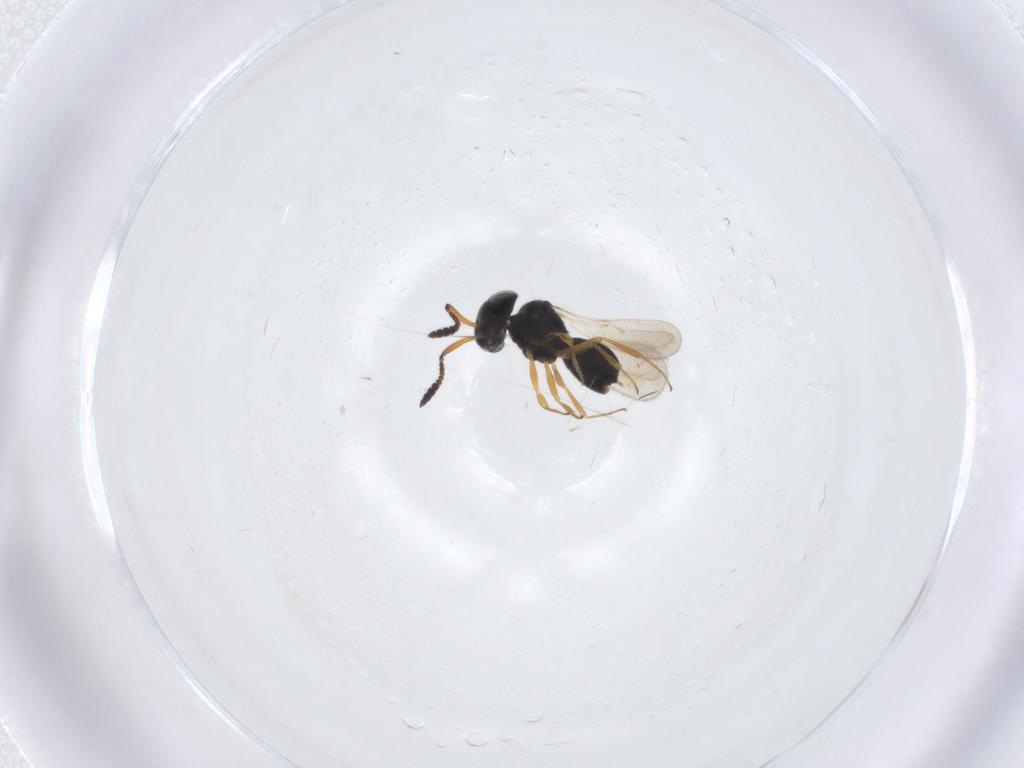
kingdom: Animalia
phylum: Arthropoda
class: Insecta
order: Hymenoptera
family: Scelionidae
